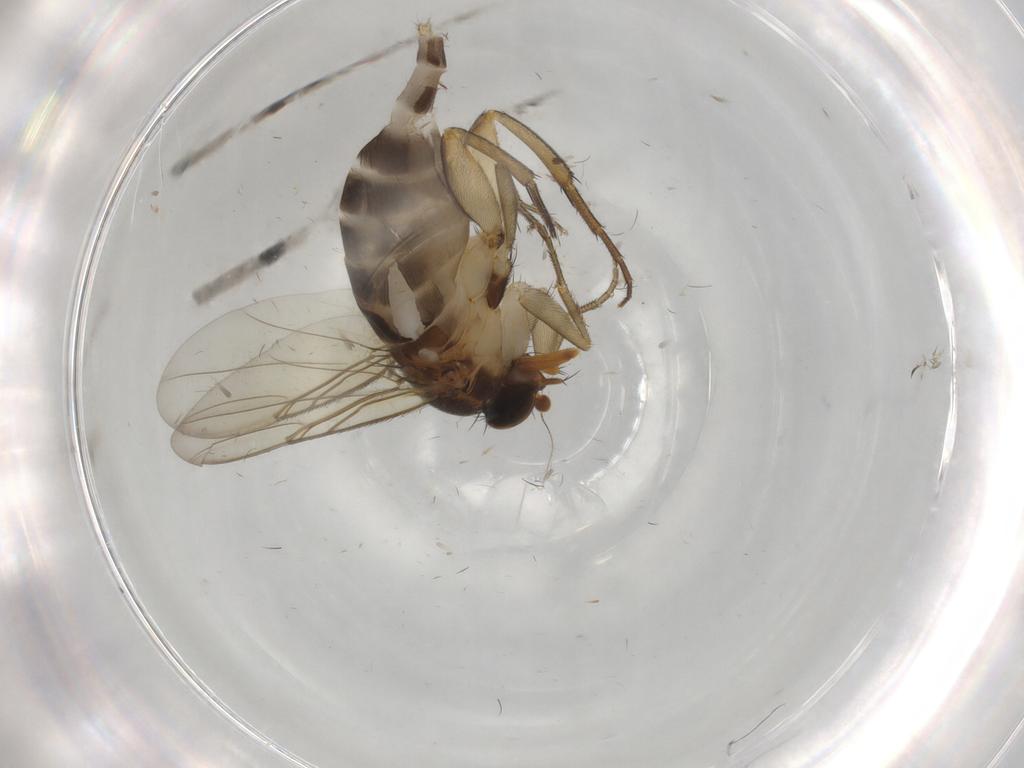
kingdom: Animalia
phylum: Arthropoda
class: Insecta
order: Diptera
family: Phoridae
